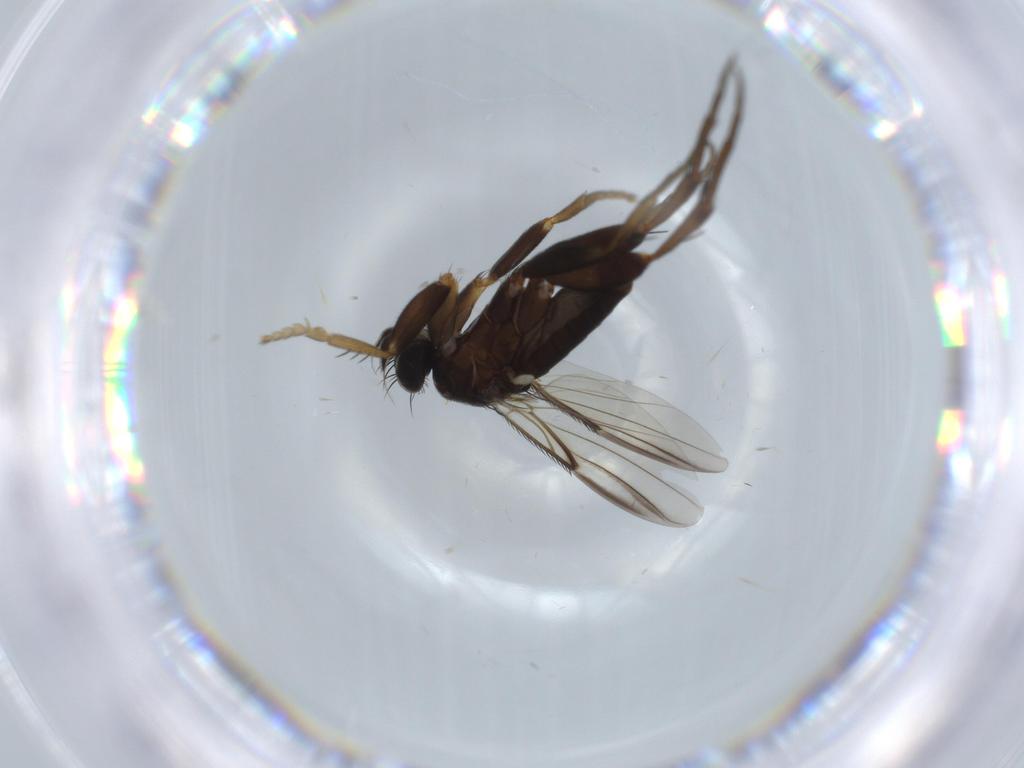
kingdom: Animalia
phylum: Arthropoda
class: Insecta
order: Diptera
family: Phoridae
